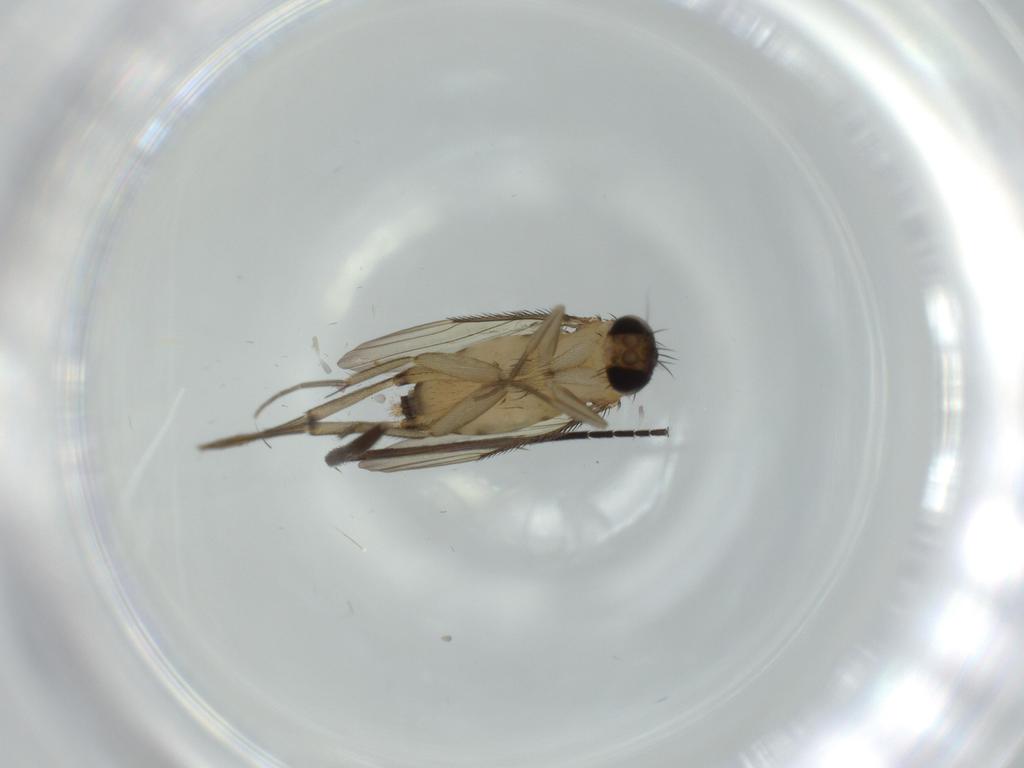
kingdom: Animalia
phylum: Arthropoda
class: Insecta
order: Diptera
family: Phoridae
